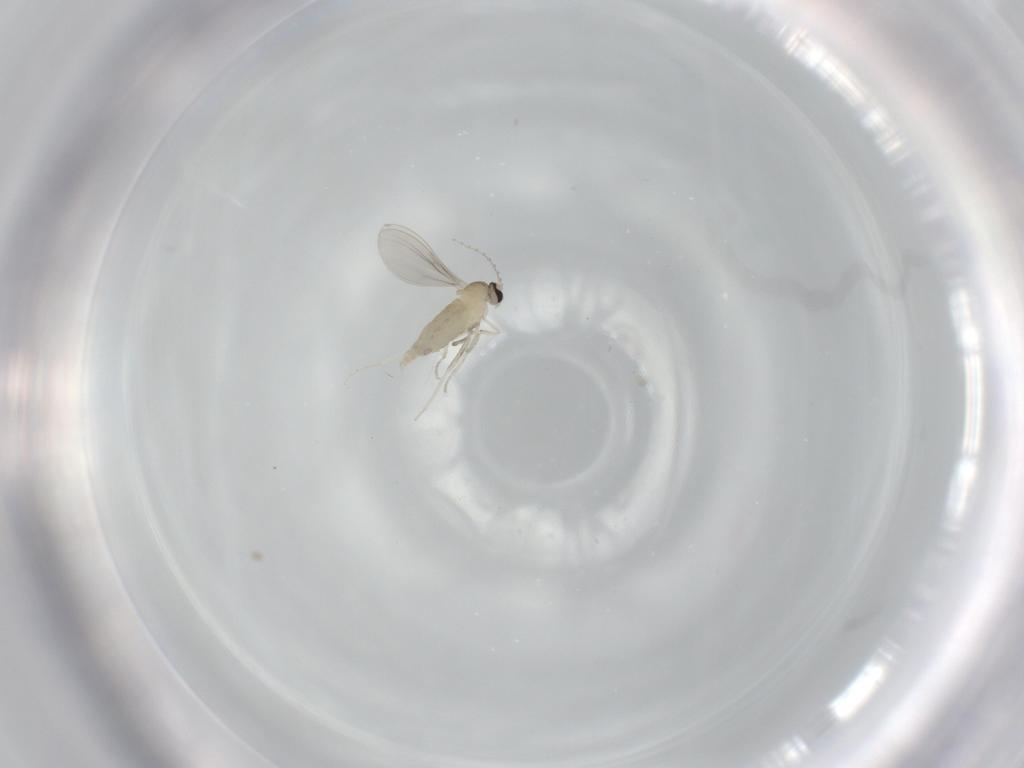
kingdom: Animalia
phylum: Arthropoda
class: Insecta
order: Diptera
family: Cecidomyiidae
